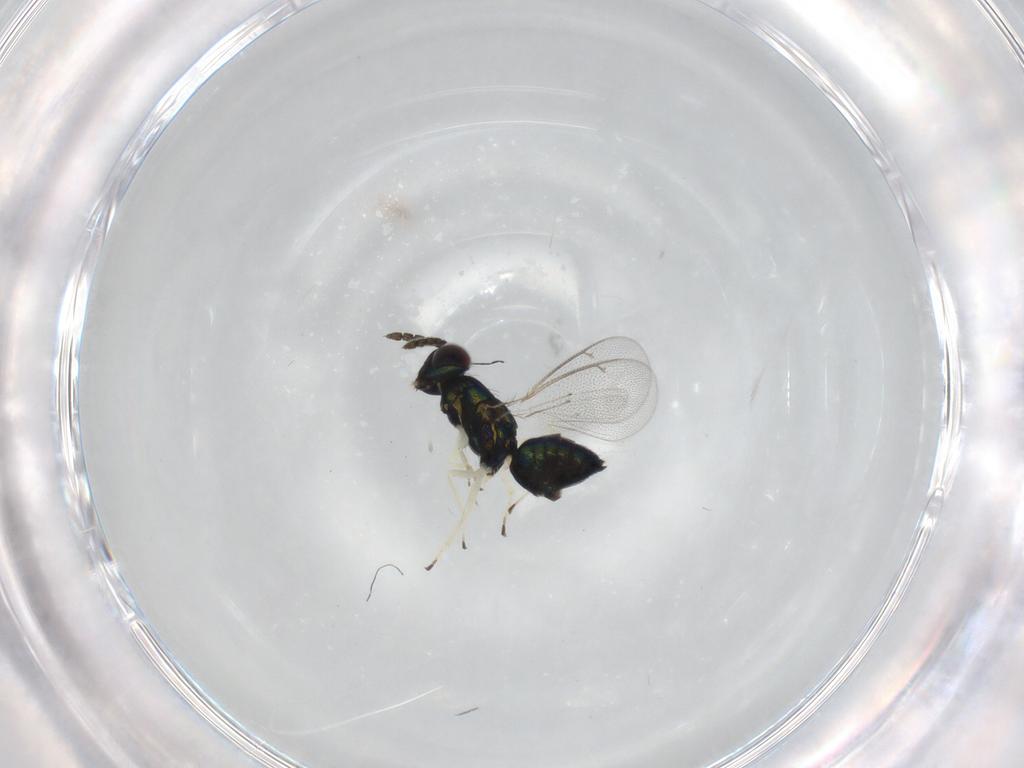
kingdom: Animalia
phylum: Arthropoda
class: Insecta
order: Hymenoptera
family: Eulophidae
